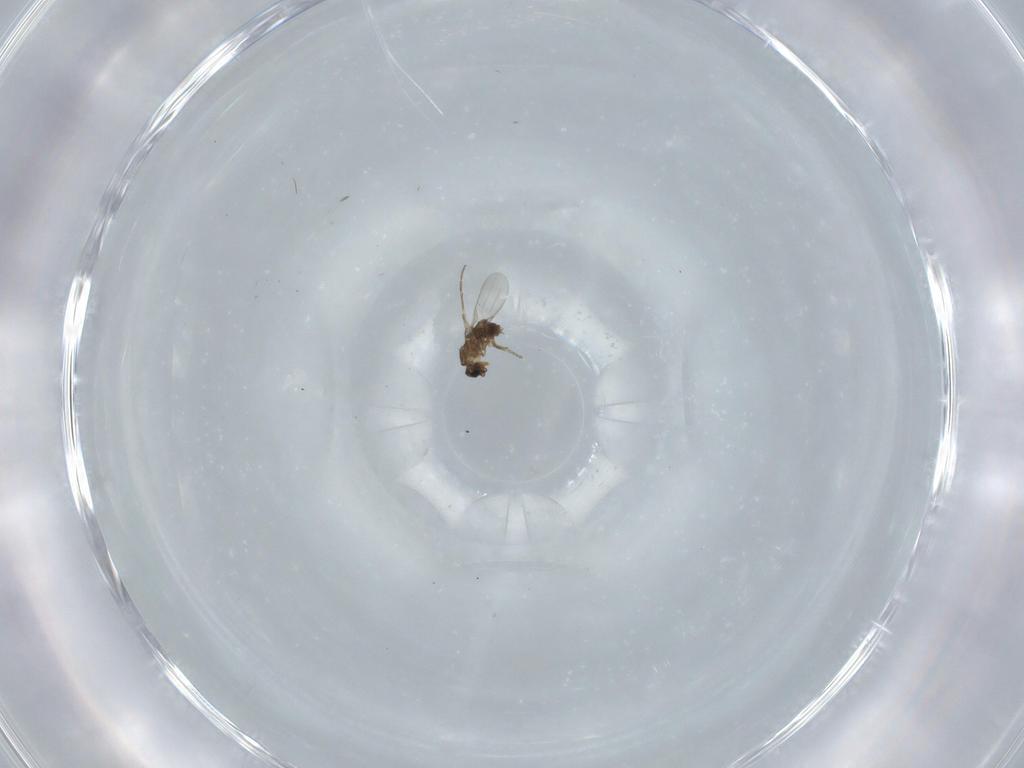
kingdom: Animalia
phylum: Arthropoda
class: Insecta
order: Diptera
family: Phoridae
